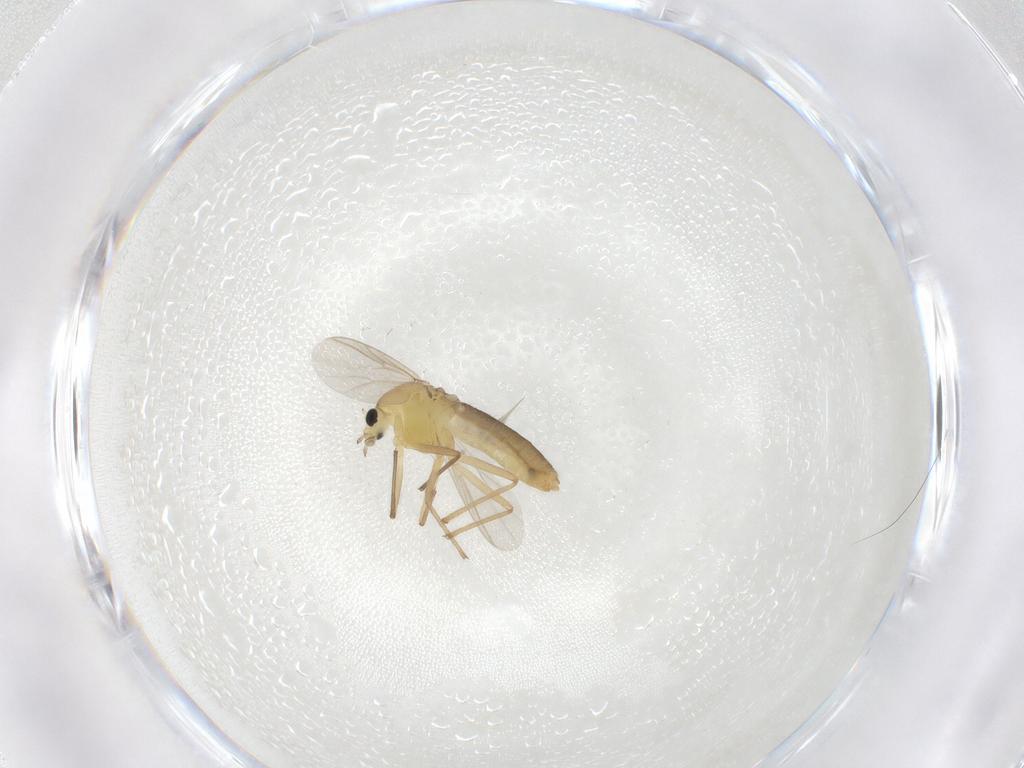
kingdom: Animalia
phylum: Arthropoda
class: Insecta
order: Diptera
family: Chironomidae
